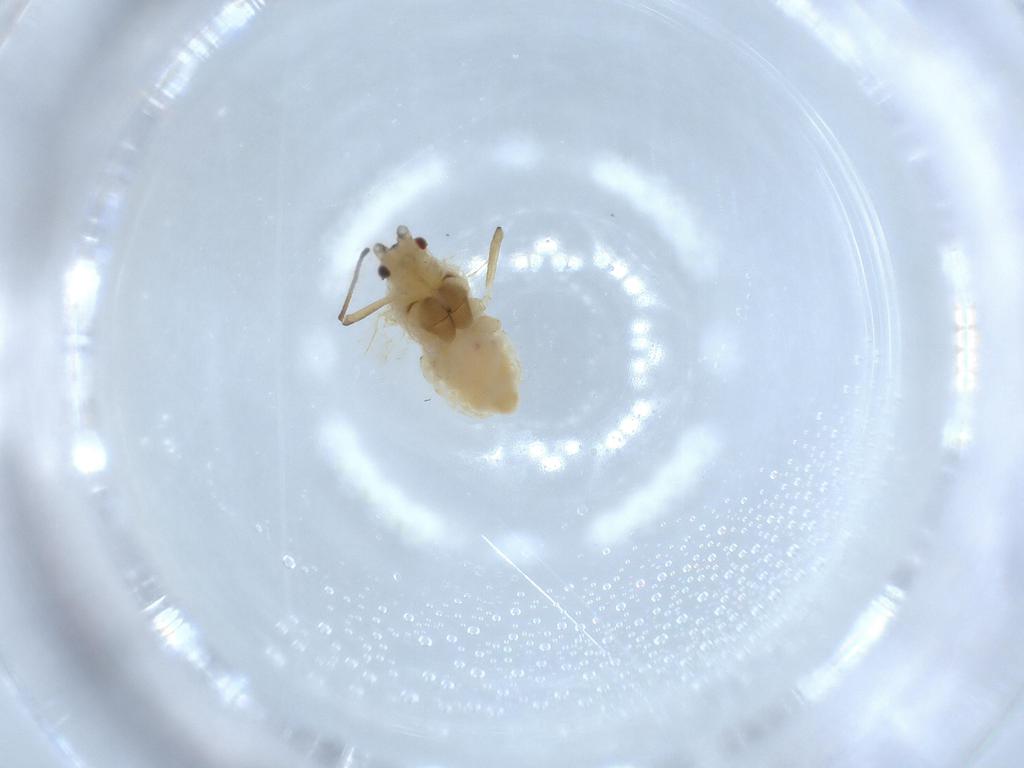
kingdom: Animalia
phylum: Arthropoda
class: Insecta
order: Hemiptera
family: Aphididae
